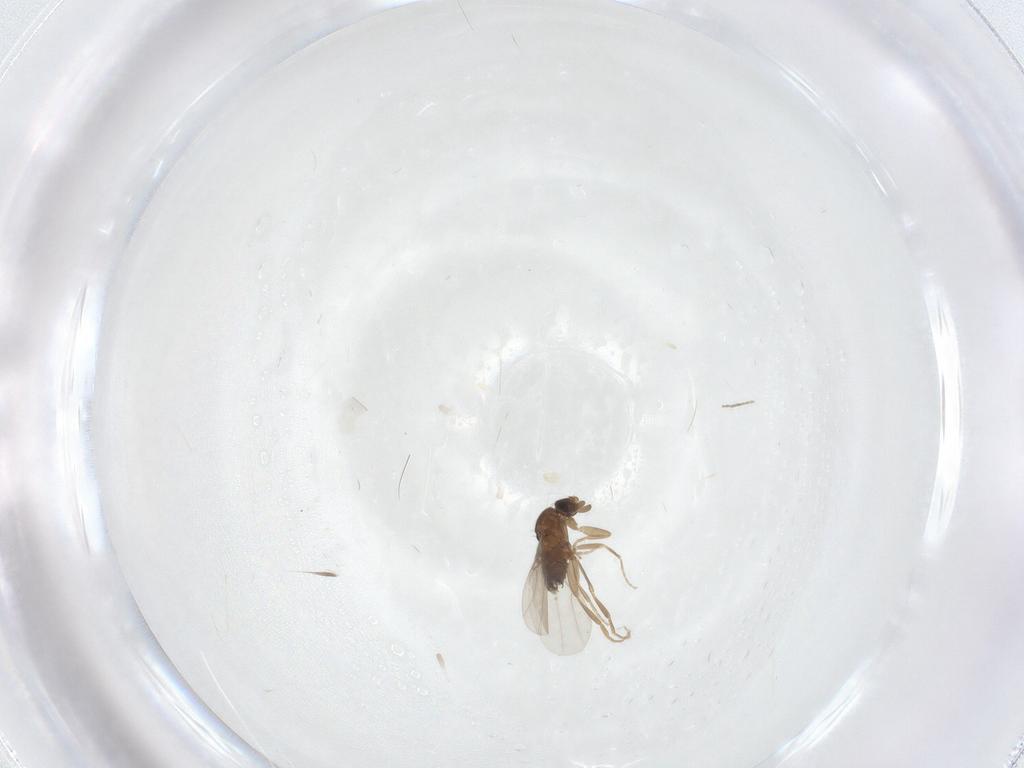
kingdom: Animalia
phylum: Arthropoda
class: Insecta
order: Diptera
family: Phoridae
